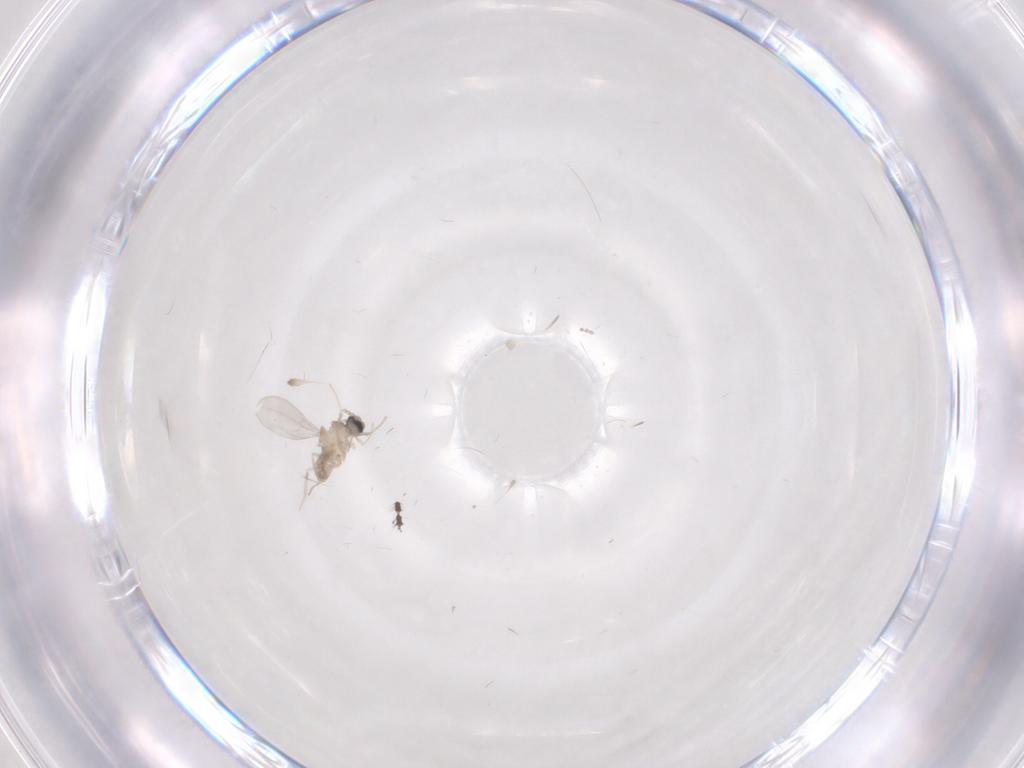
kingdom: Animalia
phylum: Arthropoda
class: Insecta
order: Diptera
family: Cecidomyiidae
